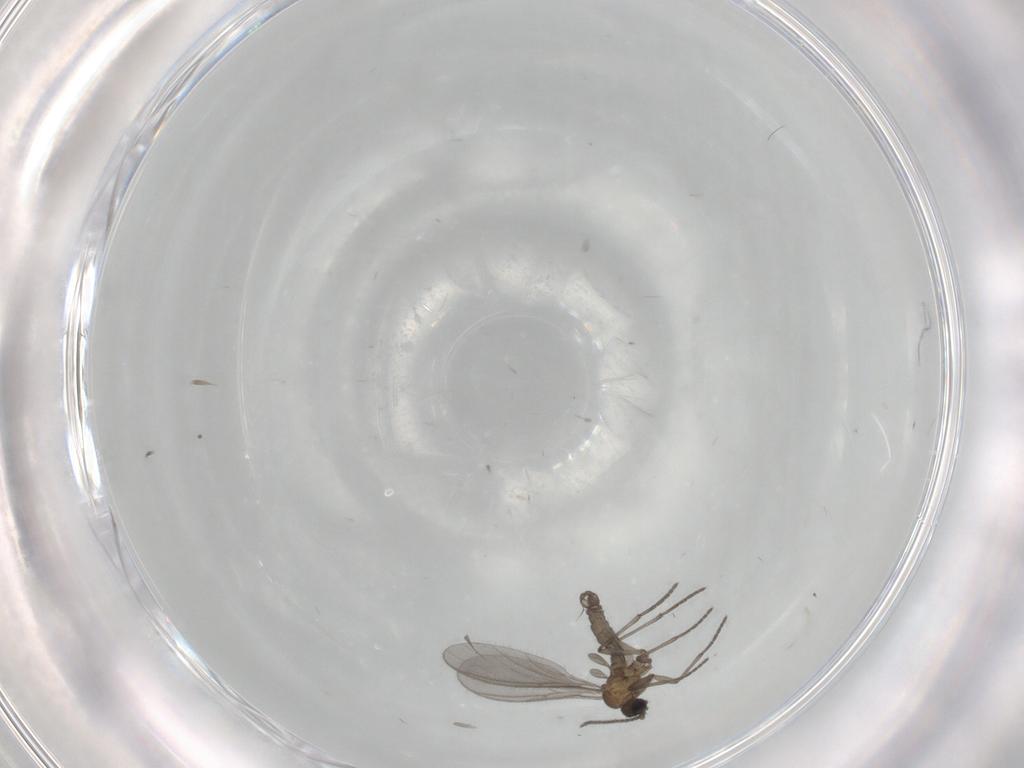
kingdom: Animalia
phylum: Arthropoda
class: Insecta
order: Diptera
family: Sciaridae
